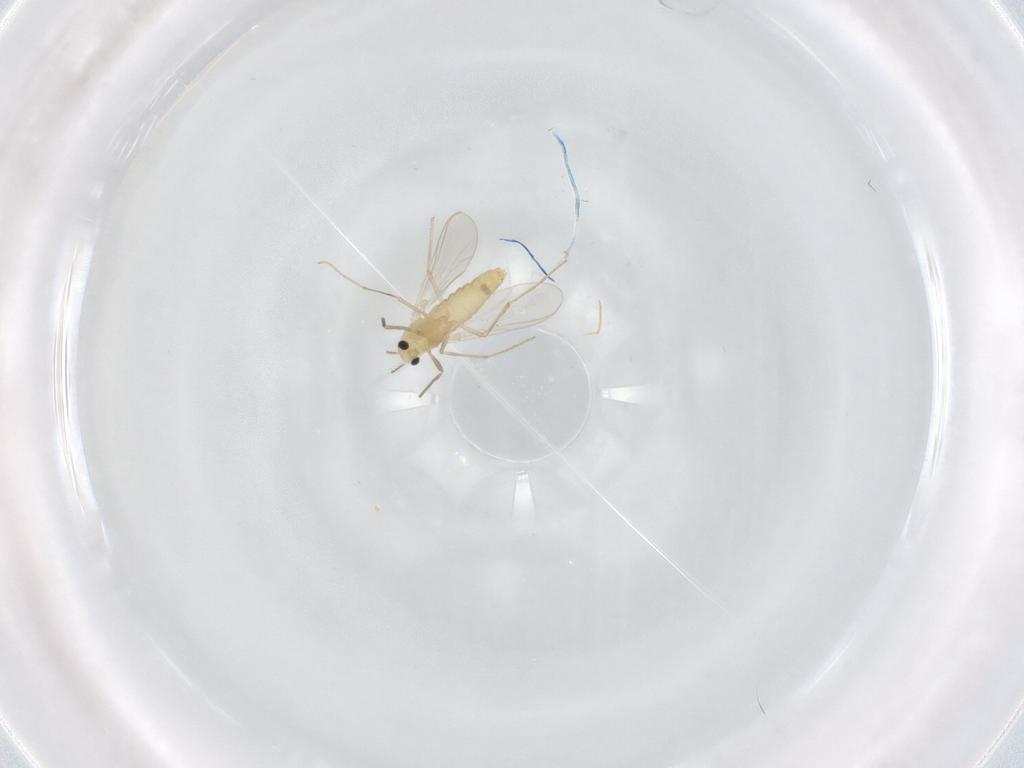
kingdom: Animalia
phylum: Arthropoda
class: Insecta
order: Diptera
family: Chironomidae
